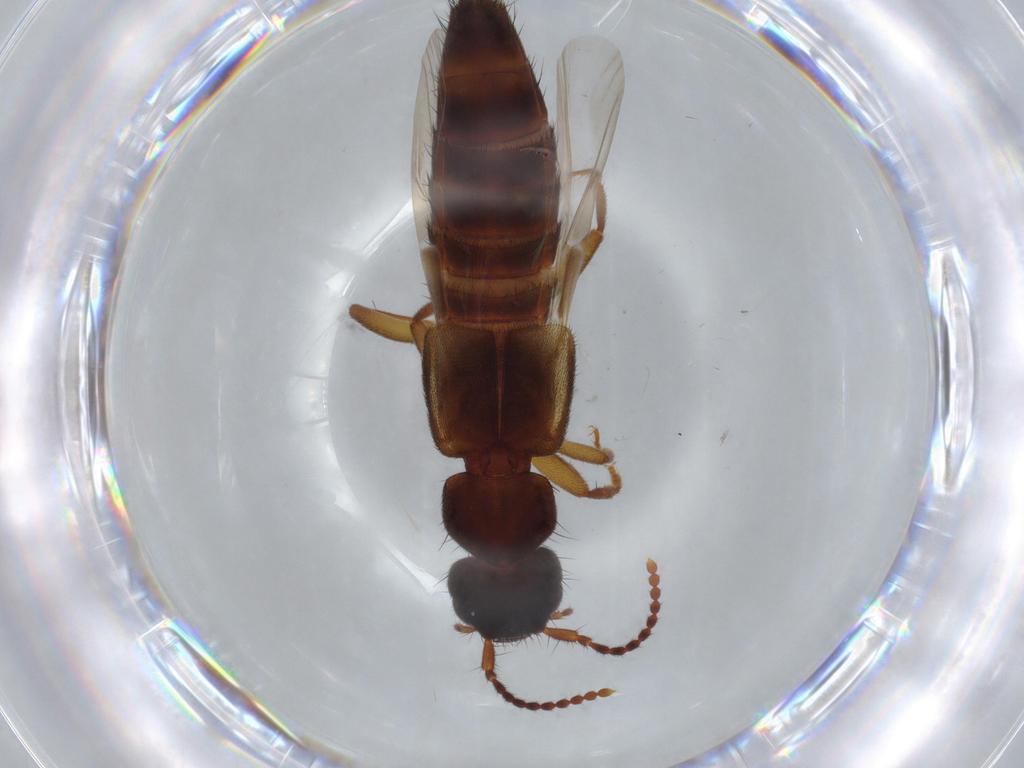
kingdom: Animalia
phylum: Arthropoda
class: Insecta
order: Coleoptera
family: Staphylinidae
